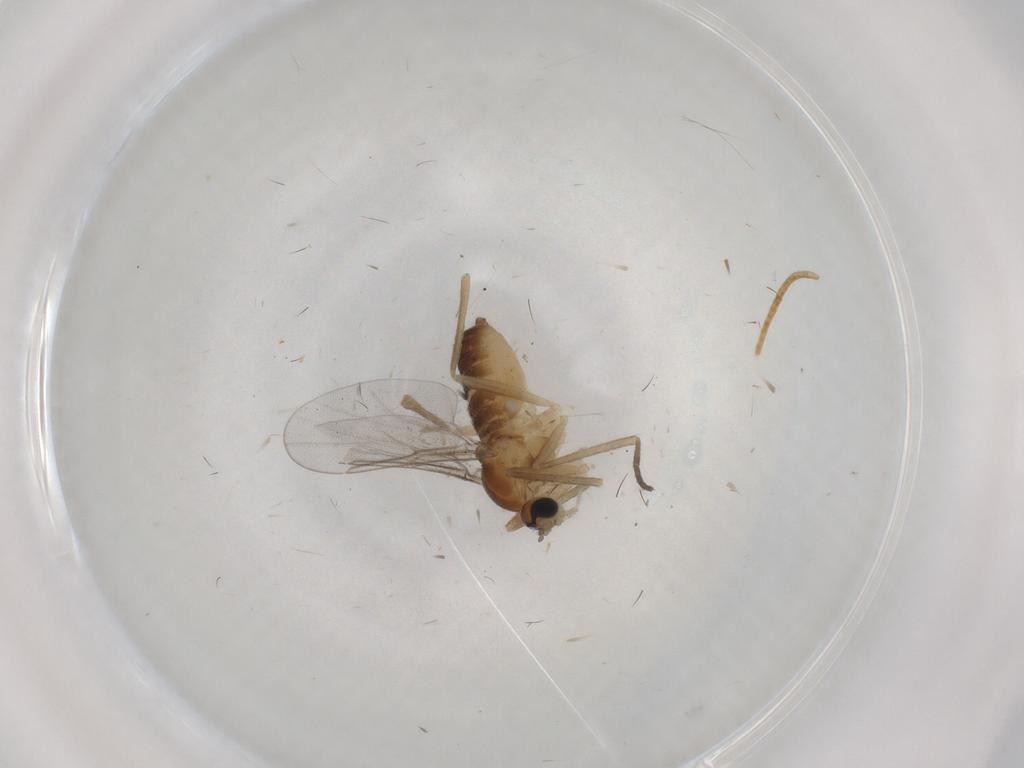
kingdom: Animalia
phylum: Arthropoda
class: Insecta
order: Diptera
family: Cecidomyiidae
